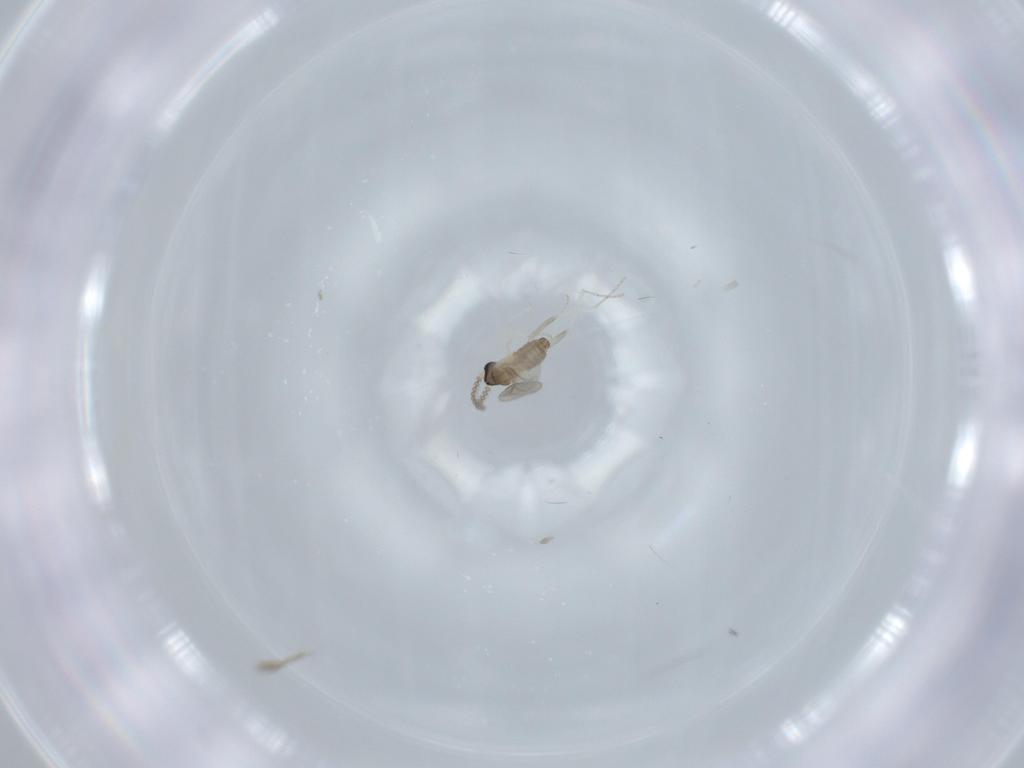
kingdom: Animalia
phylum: Arthropoda
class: Insecta
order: Diptera
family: Cecidomyiidae
